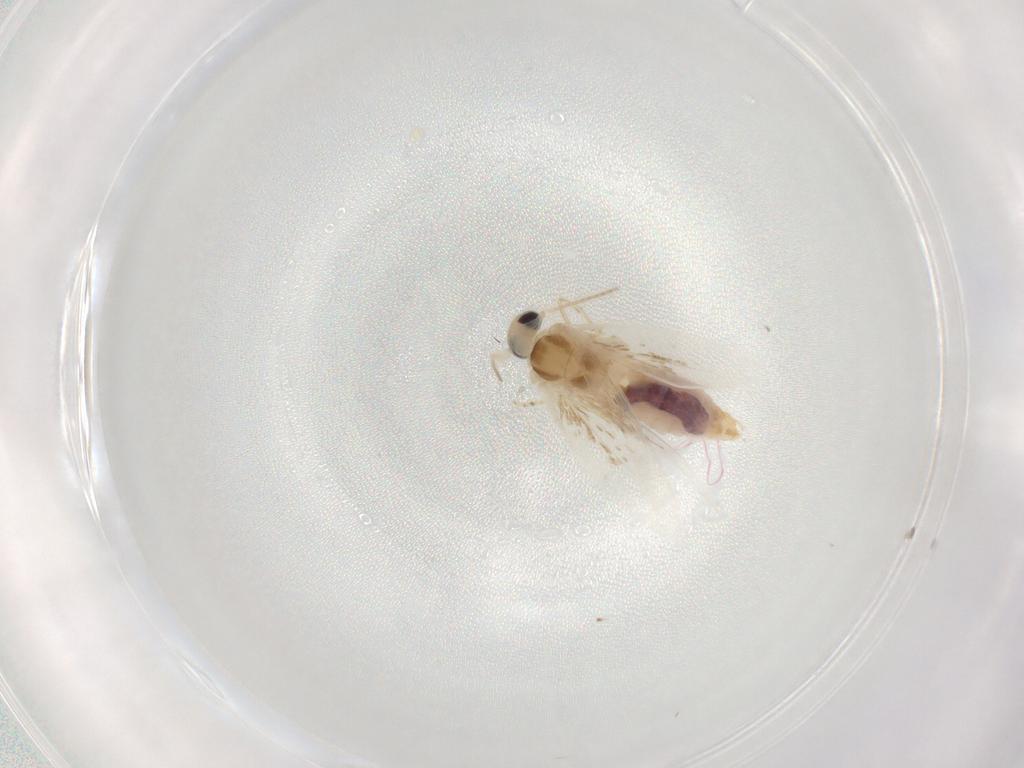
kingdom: Animalia
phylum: Arthropoda
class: Insecta
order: Lepidoptera
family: Bucculatricidae
